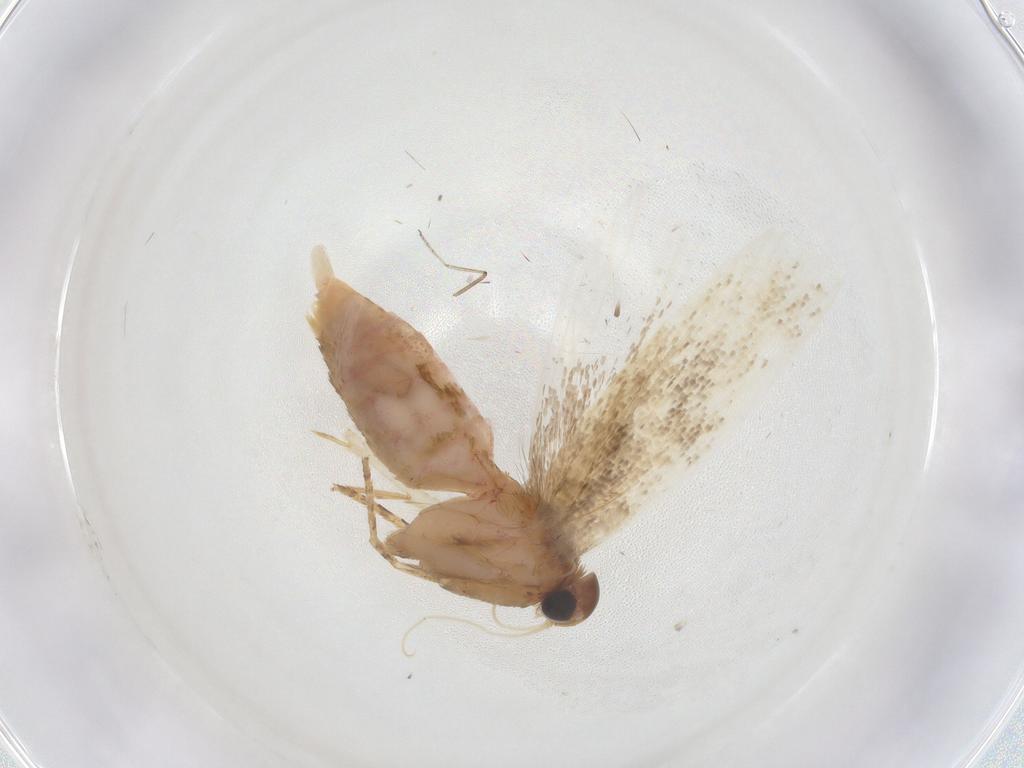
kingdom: Animalia
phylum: Arthropoda
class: Insecta
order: Lepidoptera
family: Gelechiidae
